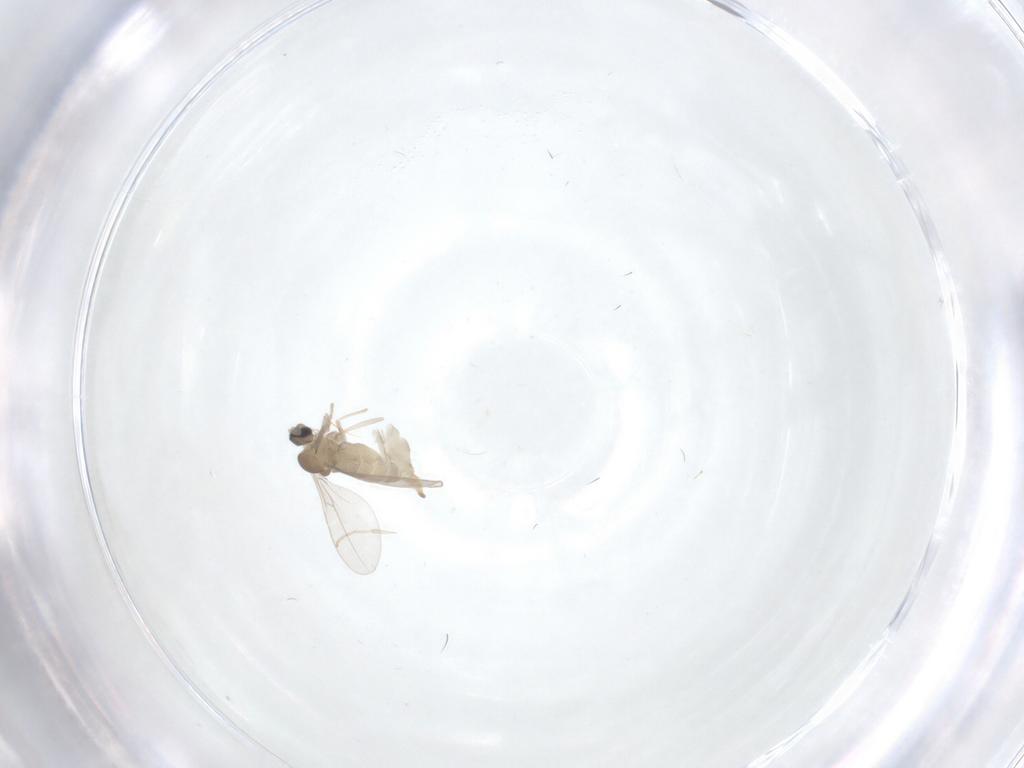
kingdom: Animalia
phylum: Arthropoda
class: Insecta
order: Diptera
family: Cecidomyiidae
